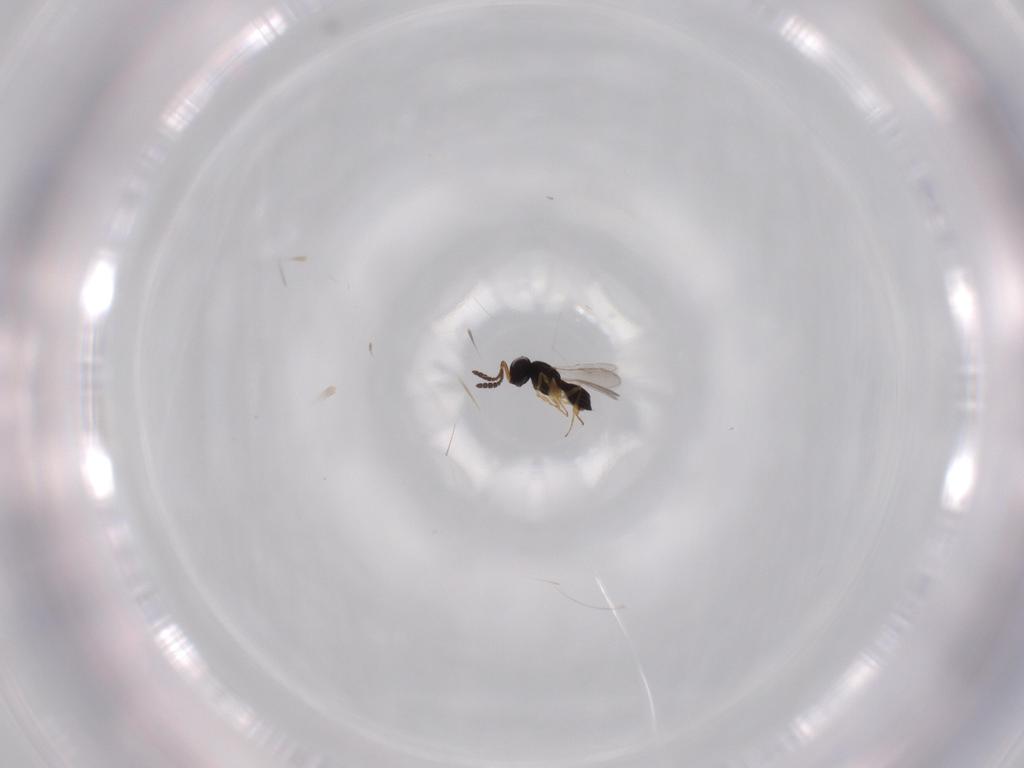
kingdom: Animalia
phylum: Arthropoda
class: Insecta
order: Hymenoptera
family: Scelionidae
